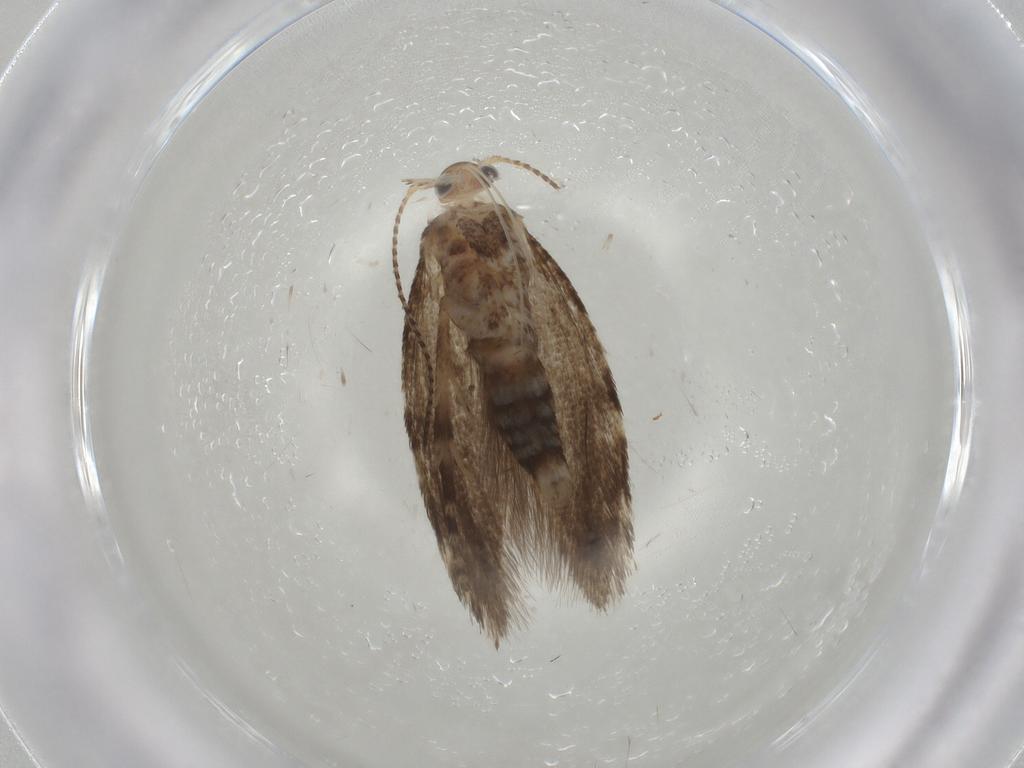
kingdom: Animalia
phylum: Arthropoda
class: Insecta
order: Lepidoptera
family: Glyphipterigidae
